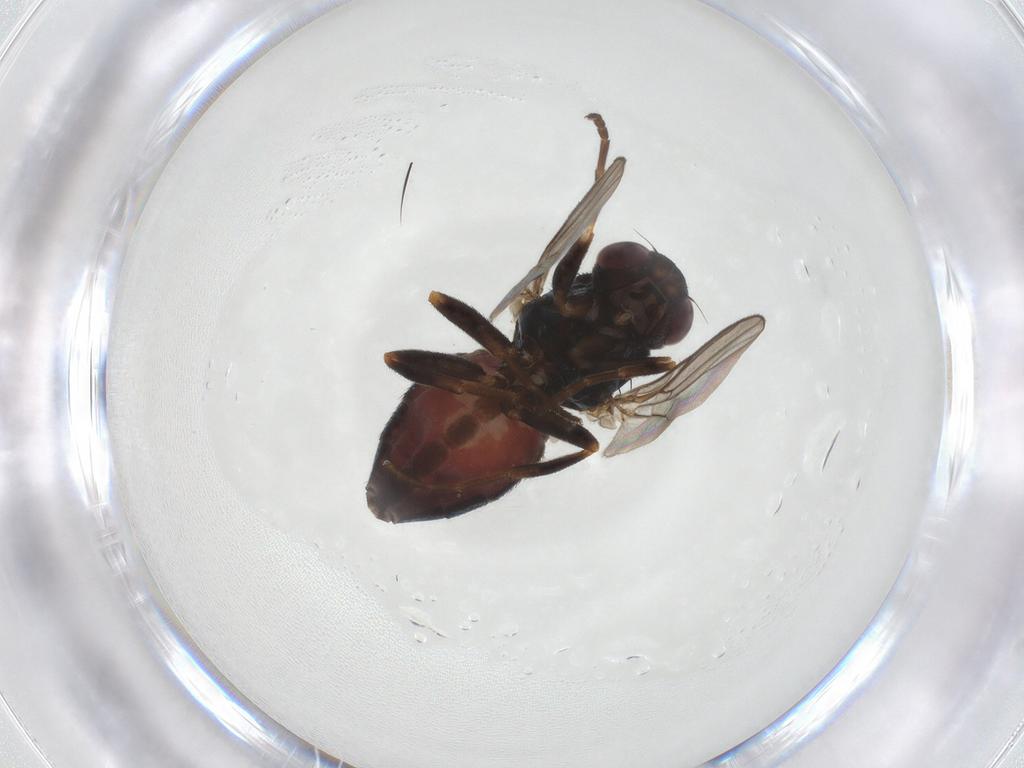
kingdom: Animalia
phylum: Arthropoda
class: Insecta
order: Diptera
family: Chloropidae
